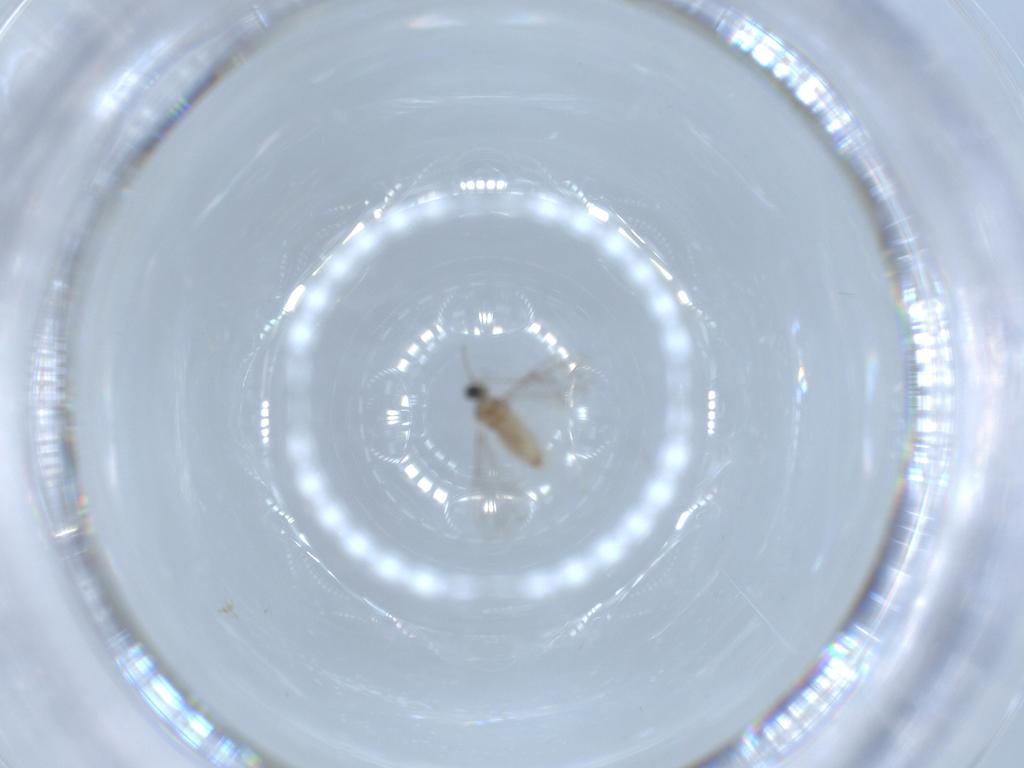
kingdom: Animalia
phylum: Arthropoda
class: Insecta
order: Diptera
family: Cecidomyiidae
